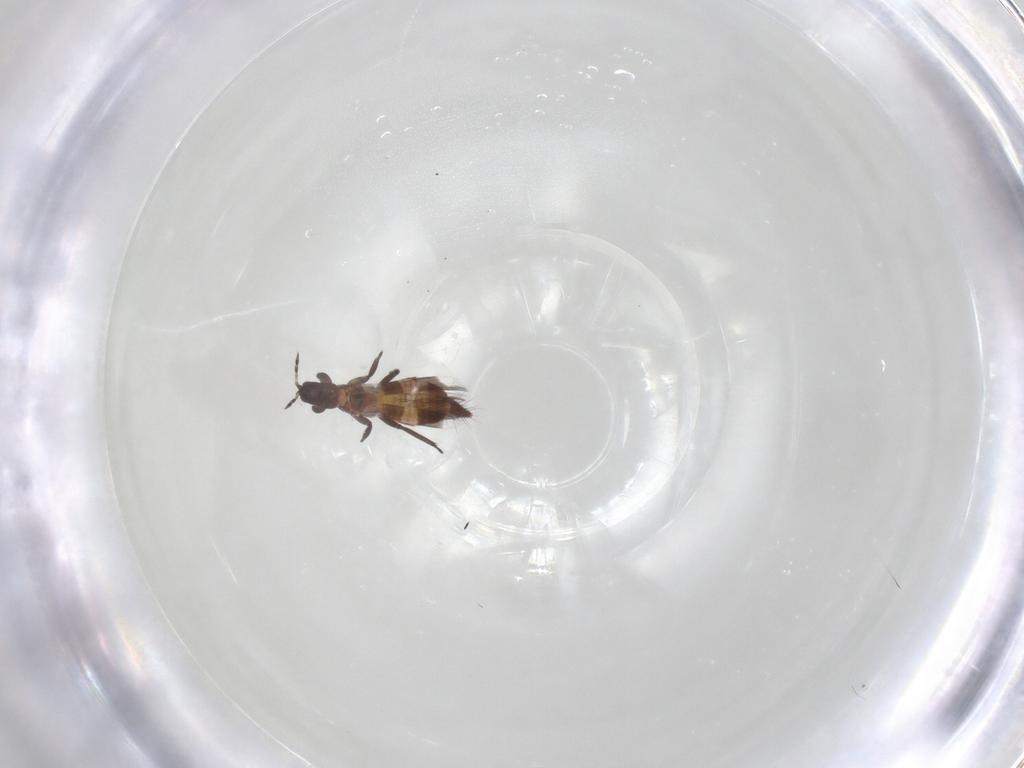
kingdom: Animalia
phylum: Arthropoda
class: Insecta
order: Thysanoptera
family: Aeolothripidae
